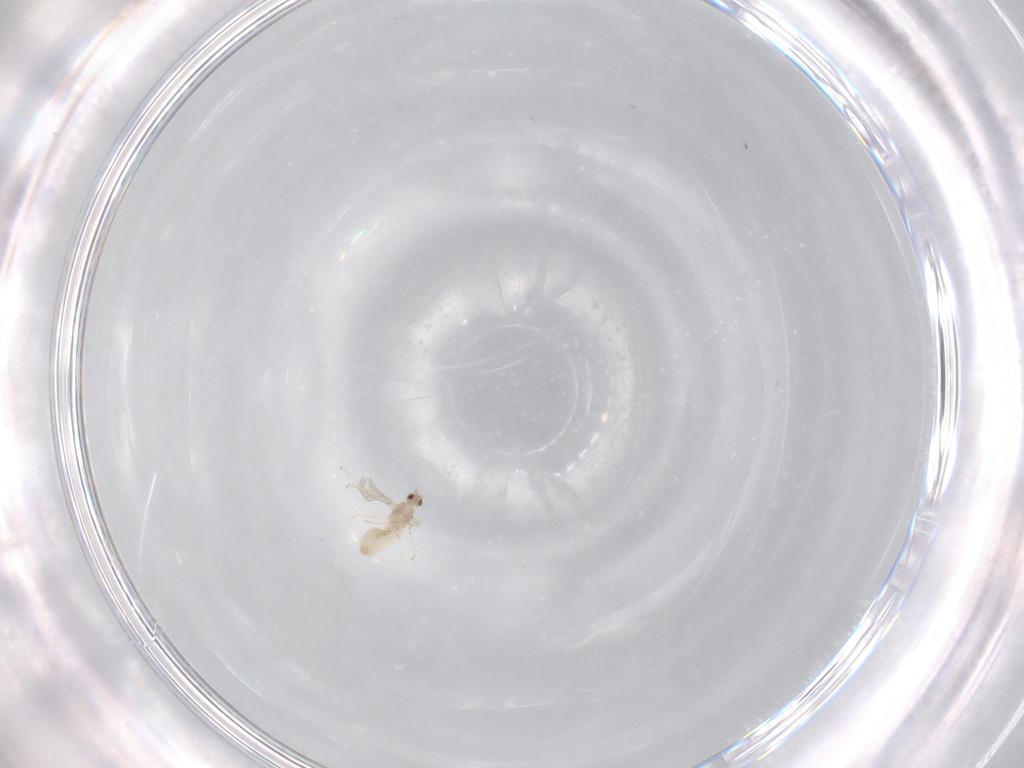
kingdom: Animalia
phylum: Arthropoda
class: Insecta
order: Diptera
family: Cecidomyiidae
